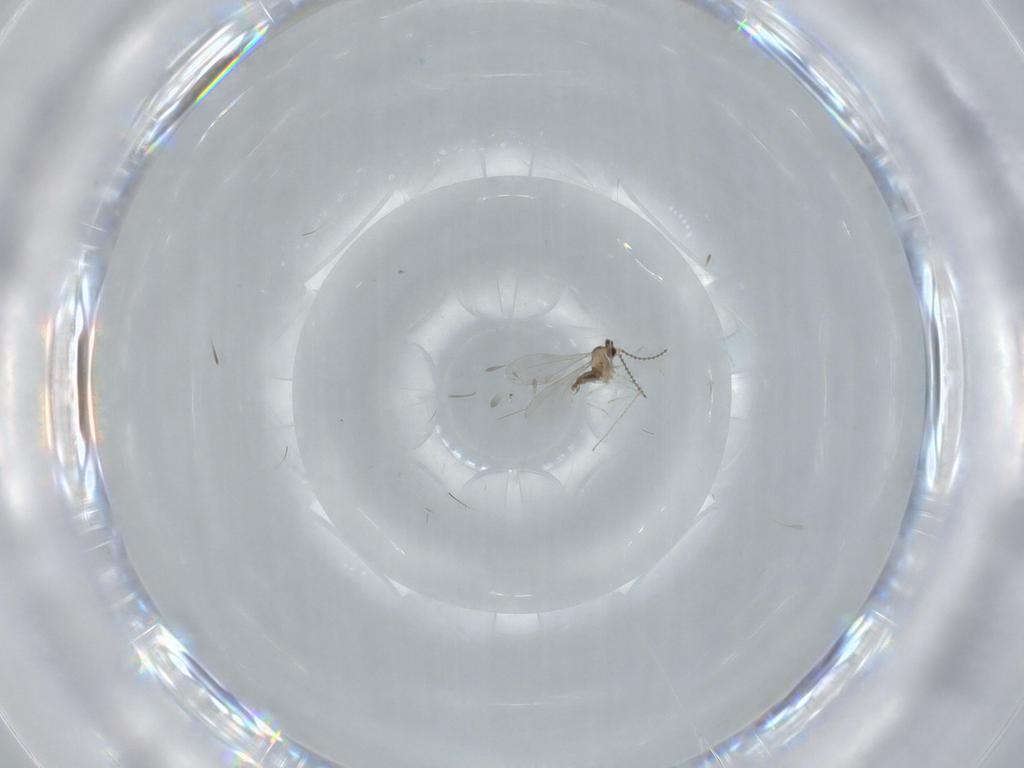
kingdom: Animalia
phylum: Arthropoda
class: Insecta
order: Diptera
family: Cecidomyiidae
